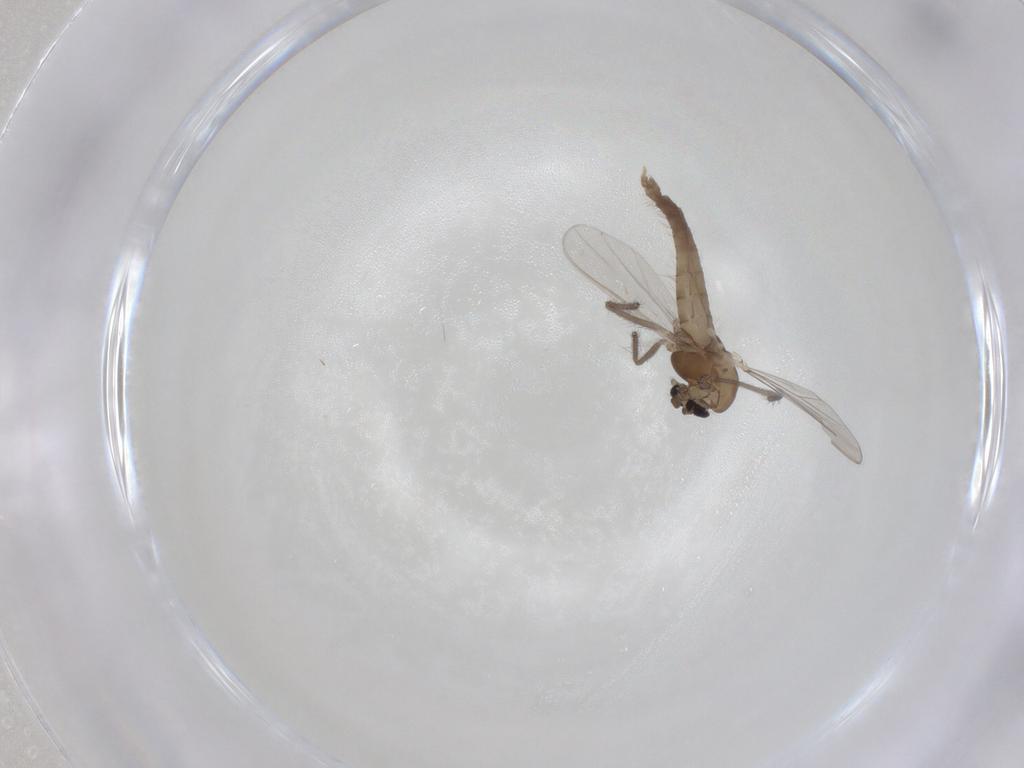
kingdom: Animalia
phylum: Arthropoda
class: Insecta
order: Diptera
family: Chironomidae
